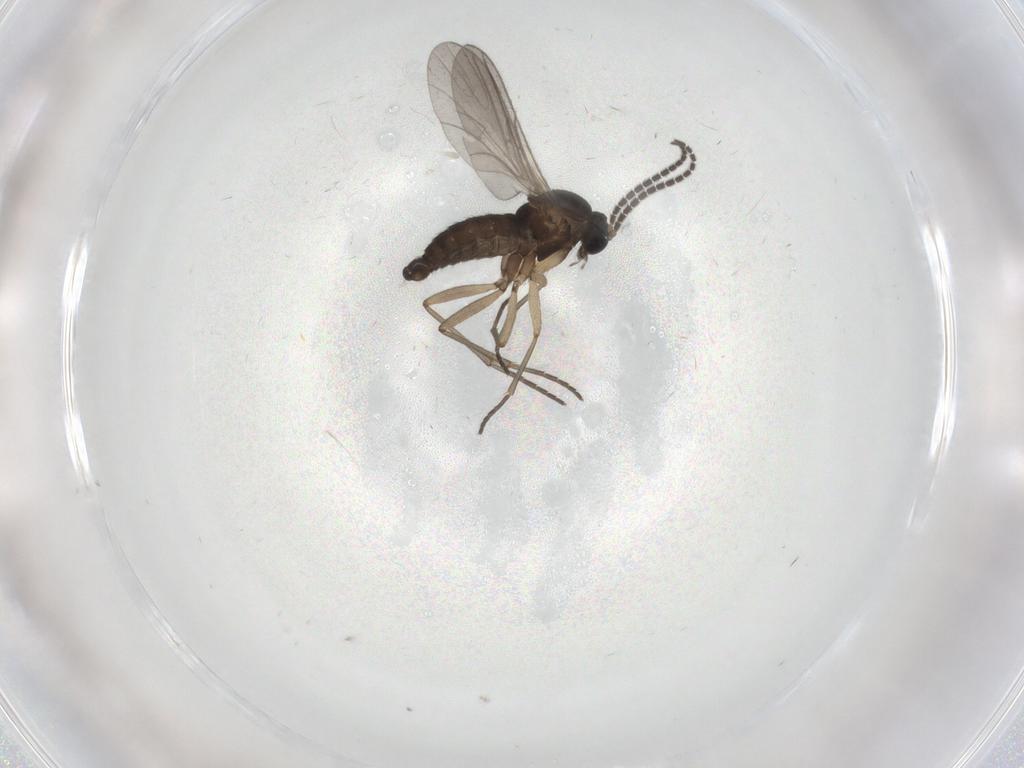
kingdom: Animalia
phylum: Arthropoda
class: Insecta
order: Diptera
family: Sciaridae
